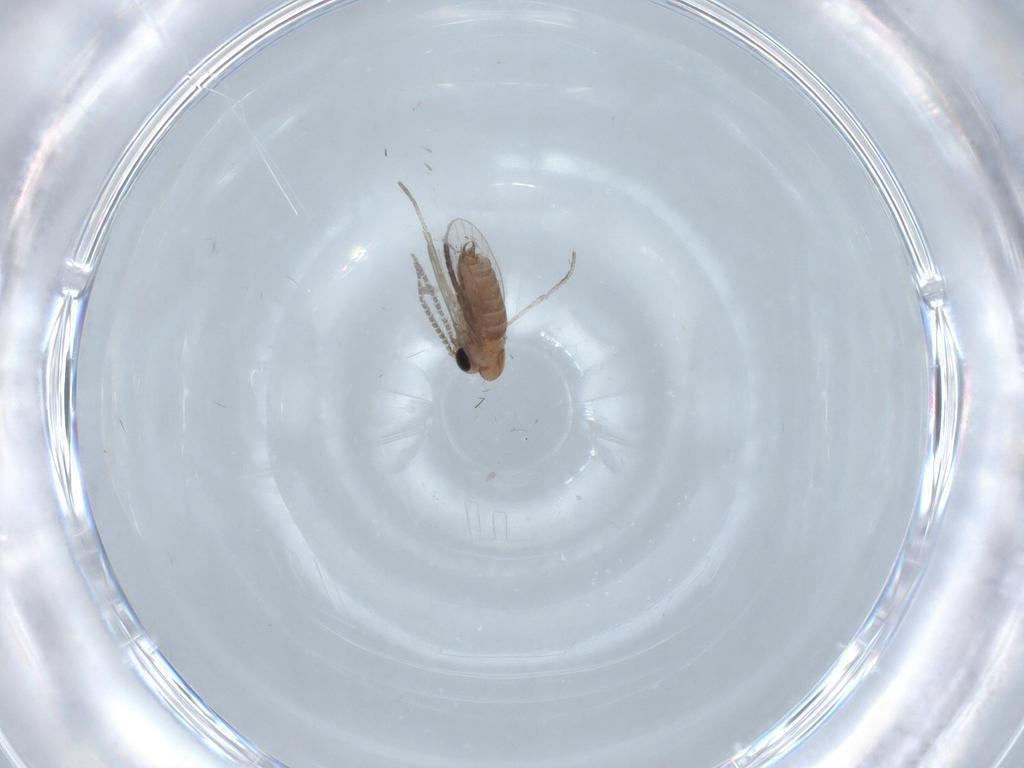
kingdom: Animalia
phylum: Arthropoda
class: Insecta
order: Diptera
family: Psychodidae
